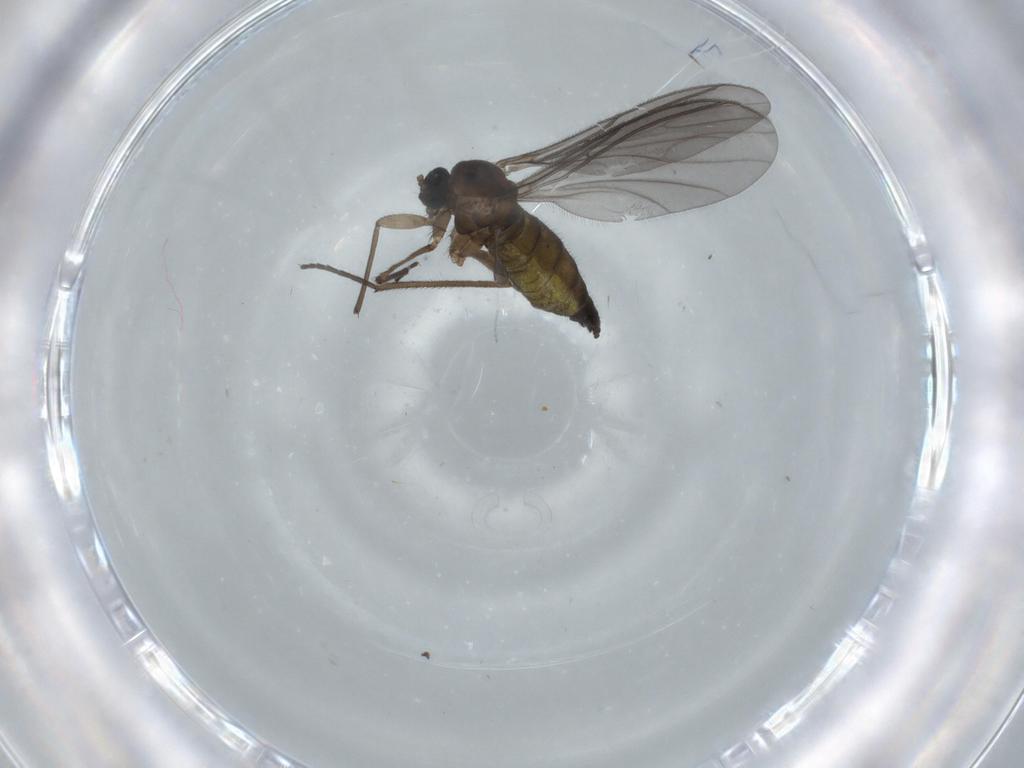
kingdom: Animalia
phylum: Arthropoda
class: Insecta
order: Diptera
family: Sciaridae
